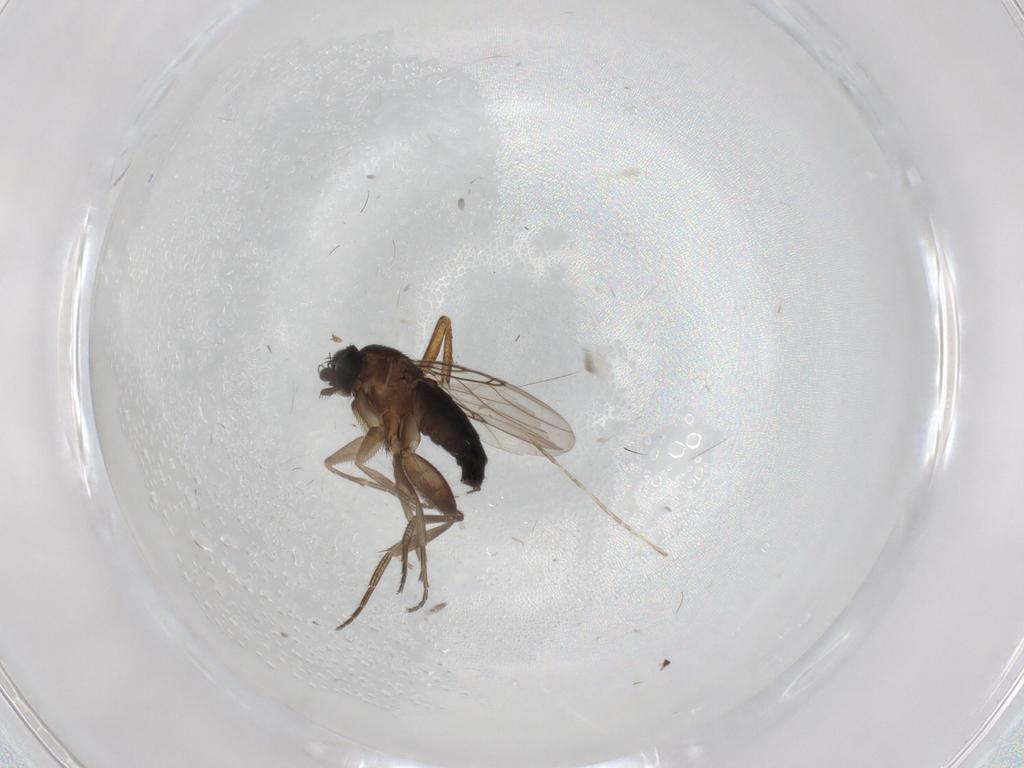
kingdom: Animalia
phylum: Arthropoda
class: Insecta
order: Diptera
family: Phoridae
